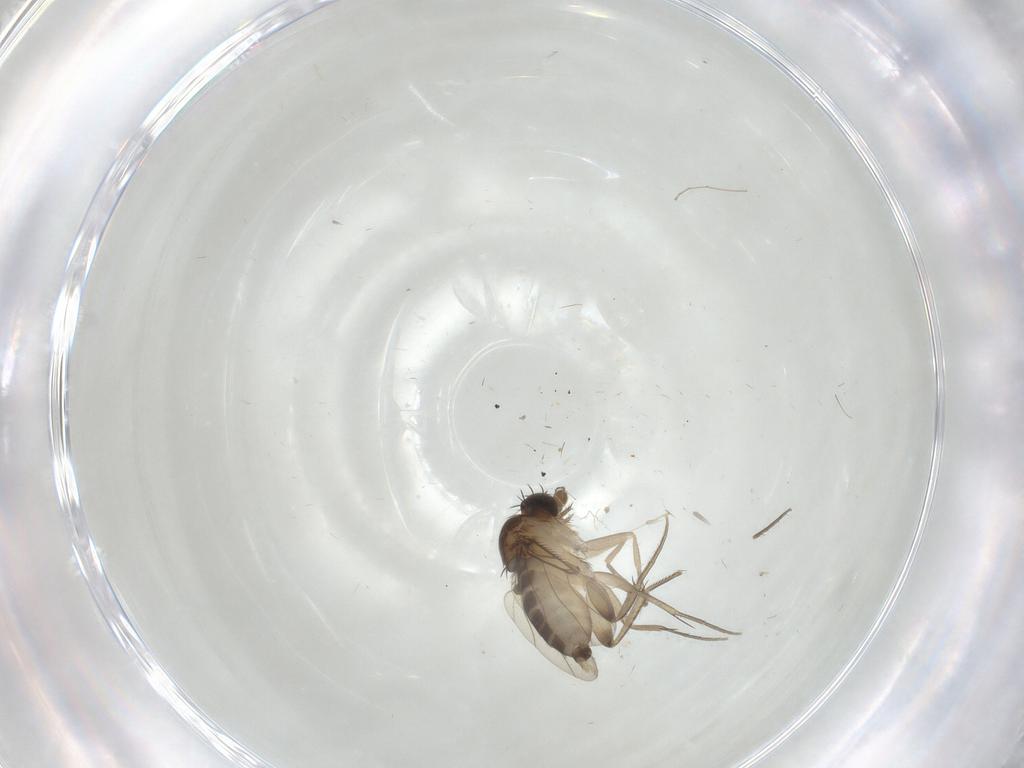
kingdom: Animalia
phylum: Arthropoda
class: Insecta
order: Diptera
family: Phoridae
